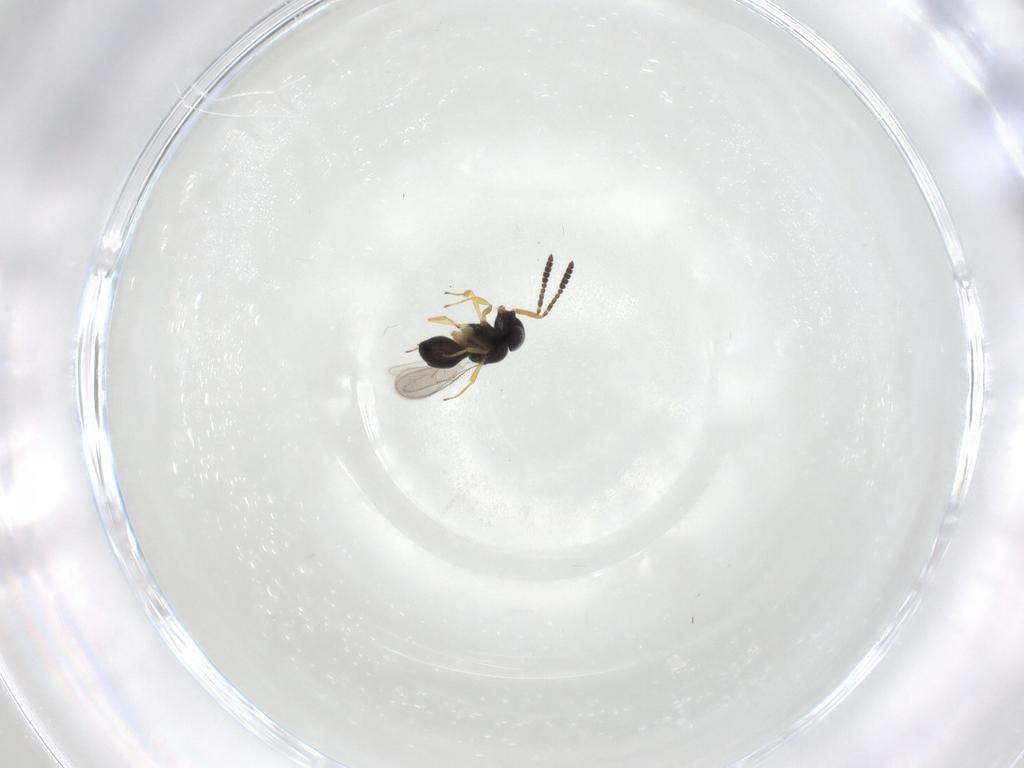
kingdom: Animalia
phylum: Arthropoda
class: Insecta
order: Hymenoptera
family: Scelionidae
